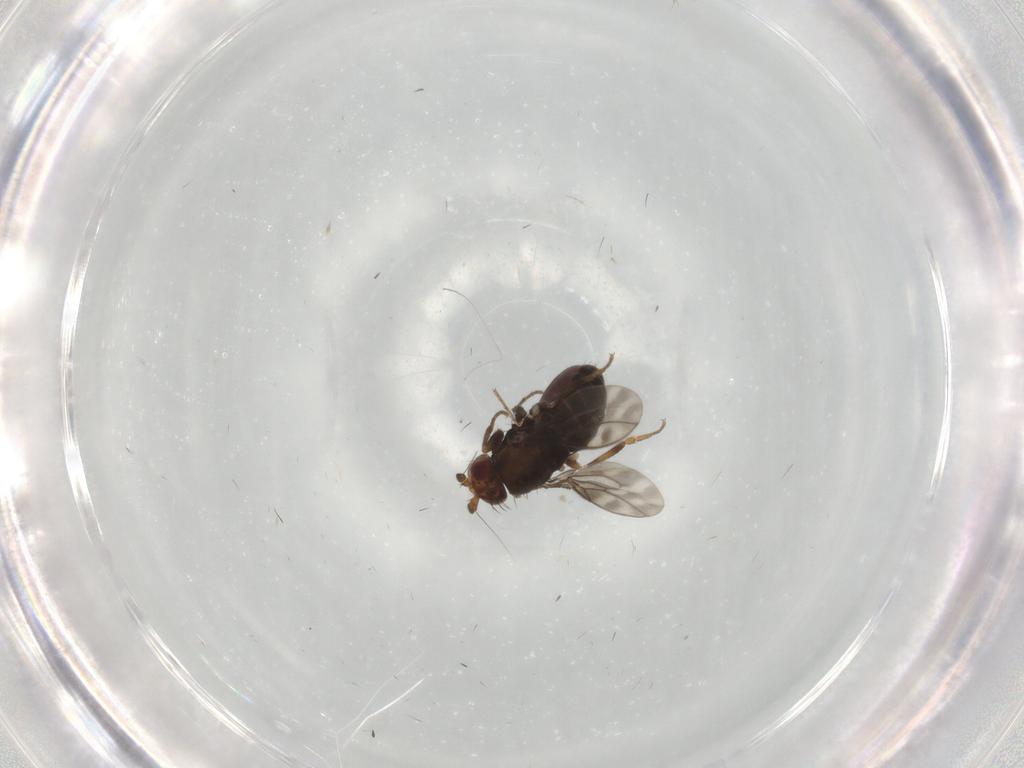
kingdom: Animalia
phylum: Arthropoda
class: Insecta
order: Diptera
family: Sphaeroceridae
